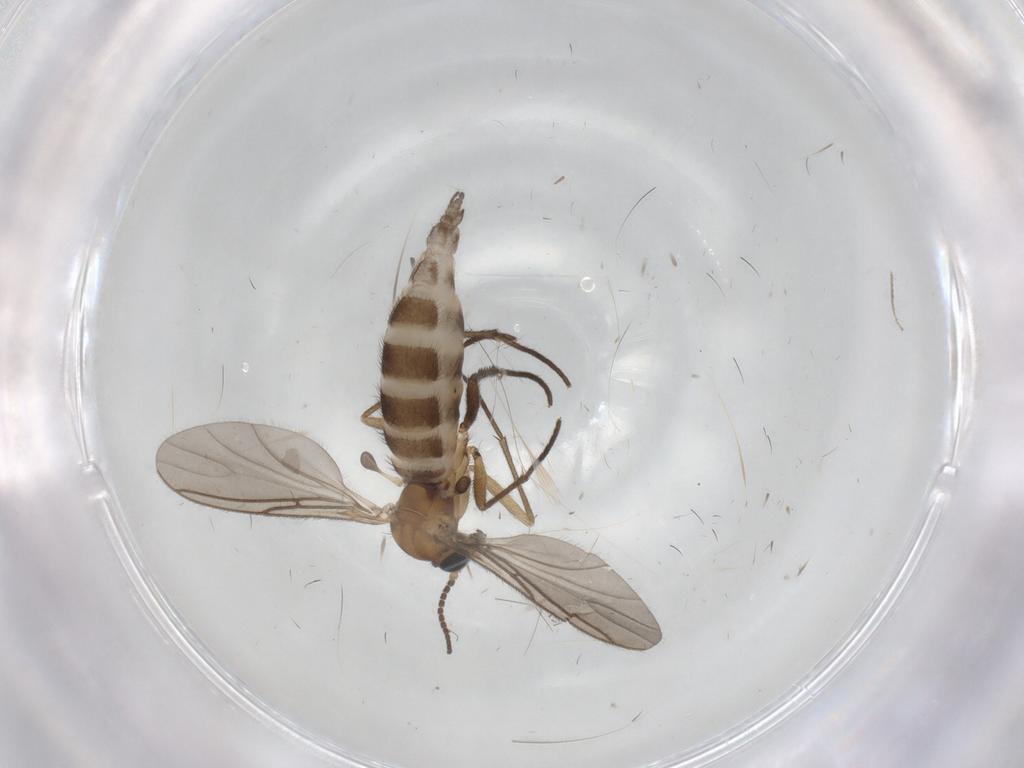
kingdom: Animalia
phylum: Arthropoda
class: Insecta
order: Diptera
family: Sciaridae
